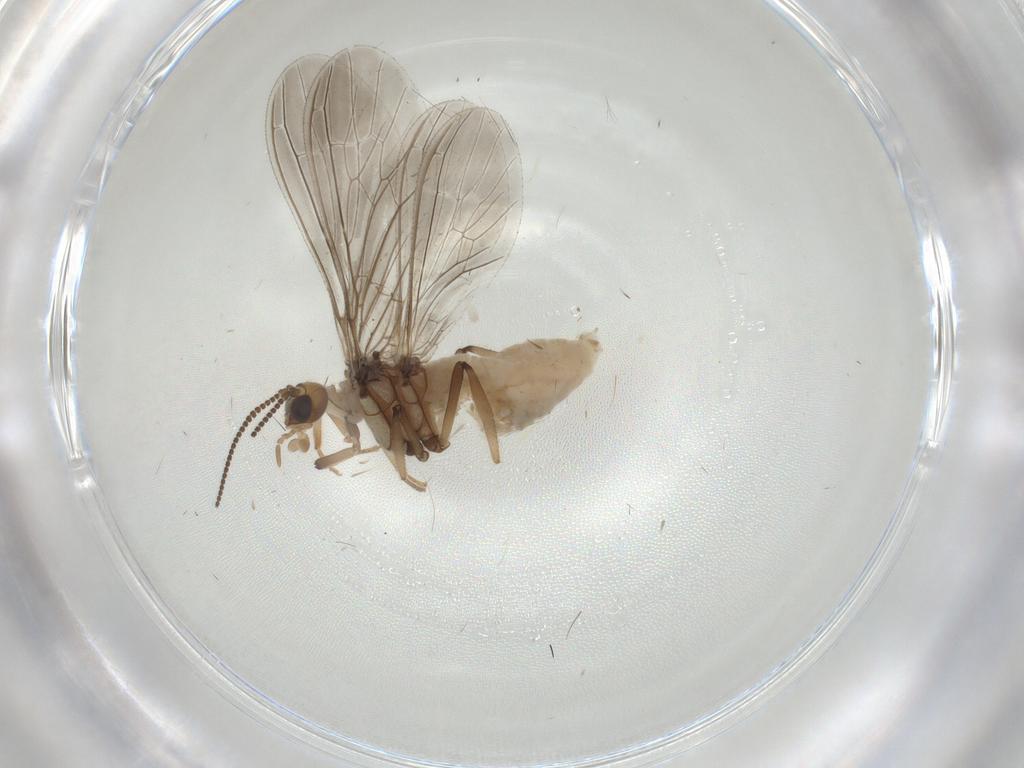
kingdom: Animalia
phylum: Arthropoda
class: Insecta
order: Neuroptera
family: Coniopterygidae
